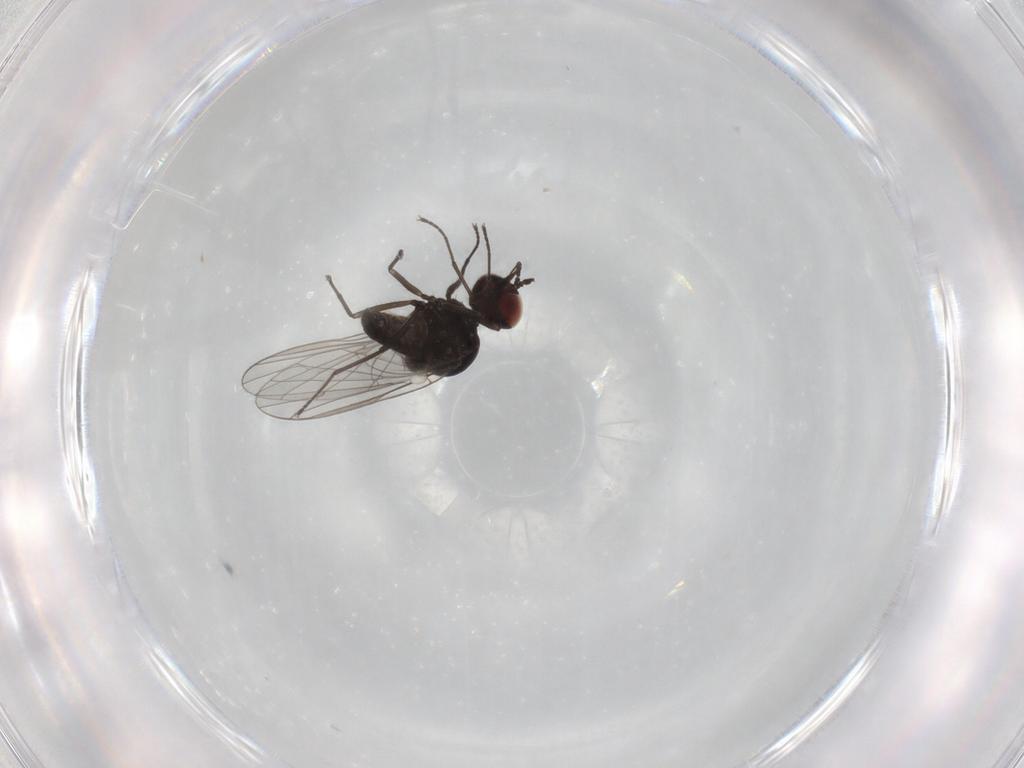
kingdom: Animalia
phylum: Arthropoda
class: Insecta
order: Diptera
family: Bombyliidae
